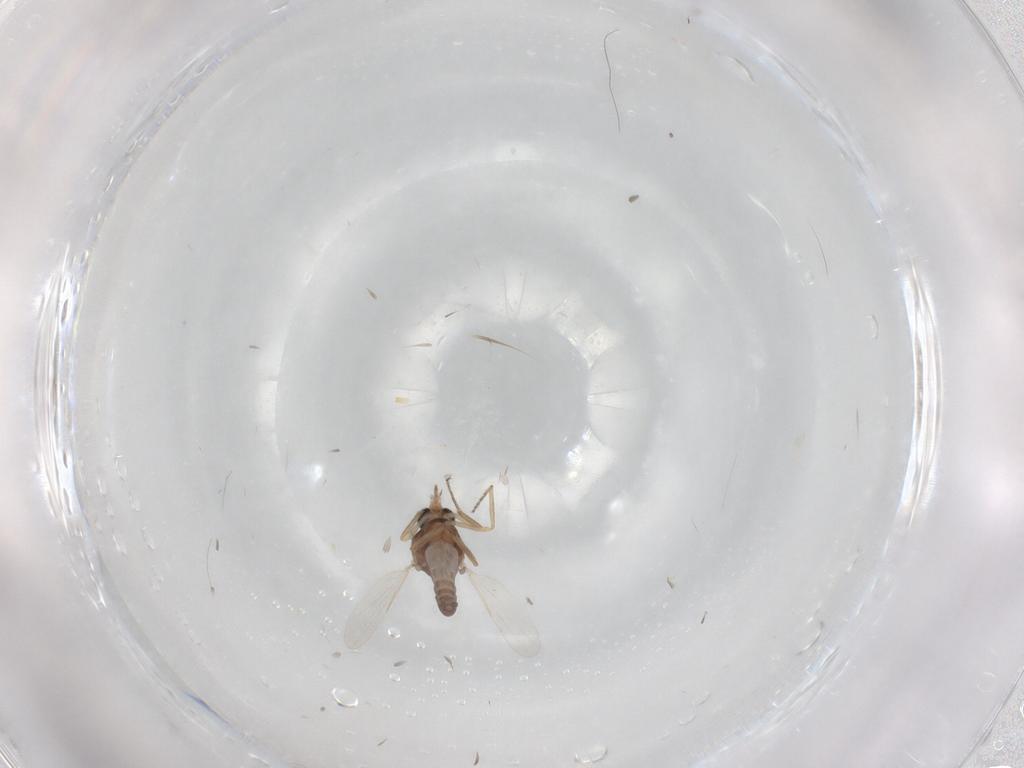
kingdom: Animalia
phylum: Arthropoda
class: Insecta
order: Diptera
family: Ceratopogonidae
